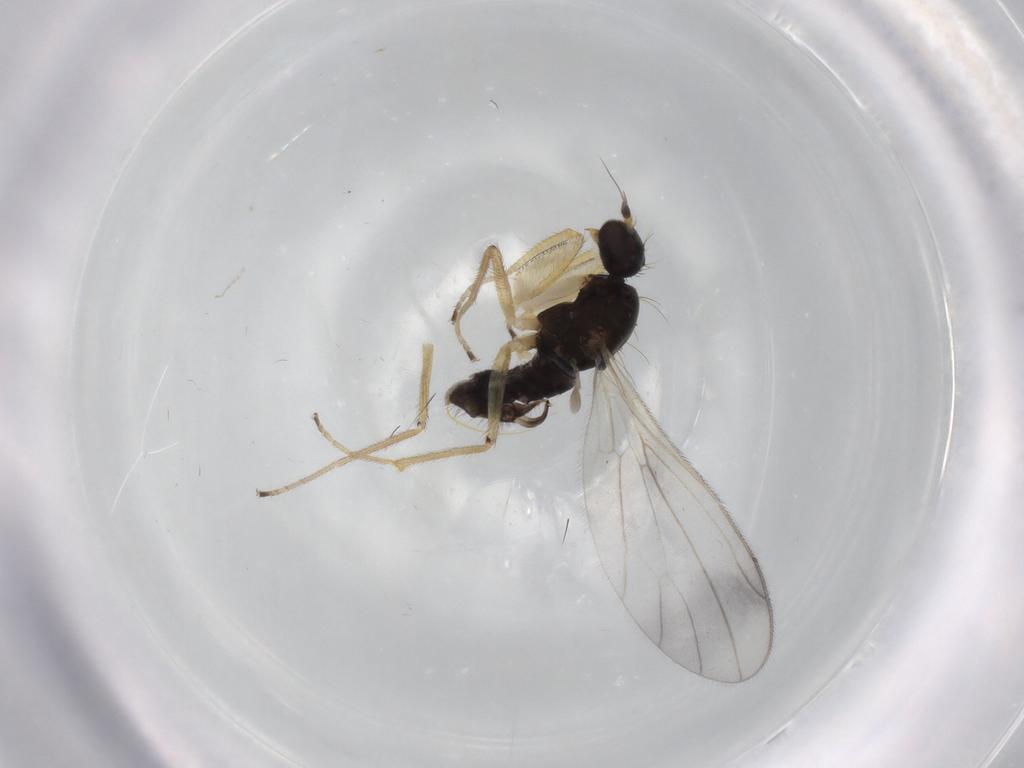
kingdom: Animalia
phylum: Arthropoda
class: Insecta
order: Diptera
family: Empididae
